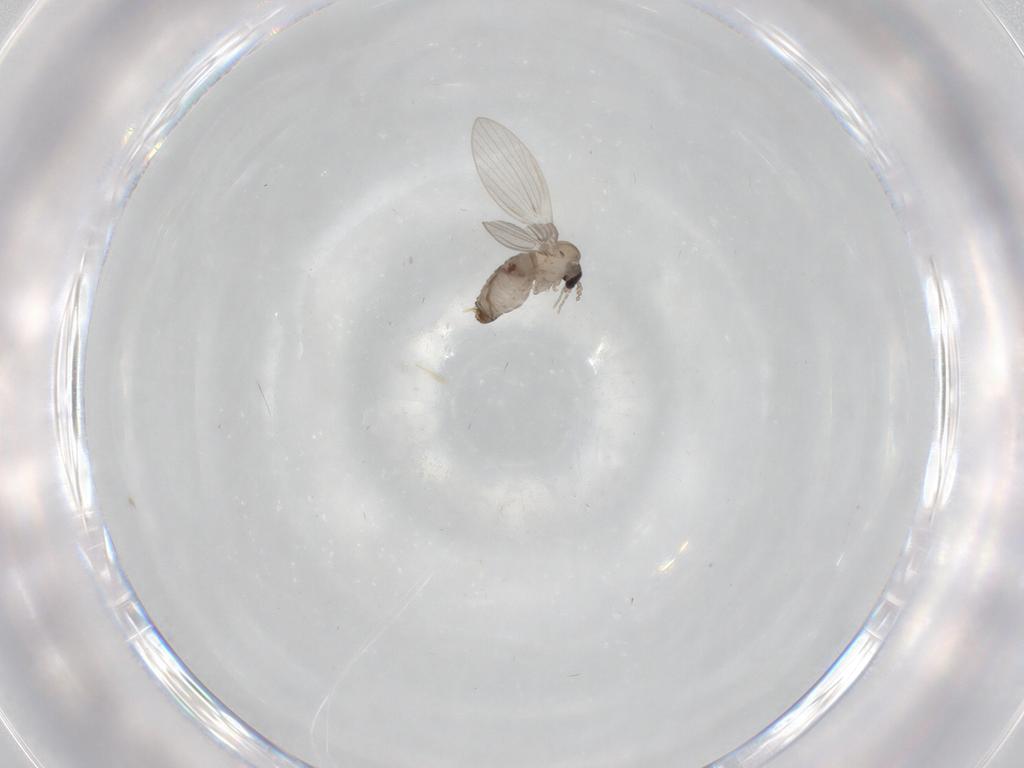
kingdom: Animalia
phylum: Arthropoda
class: Insecta
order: Diptera
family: Psychodidae
